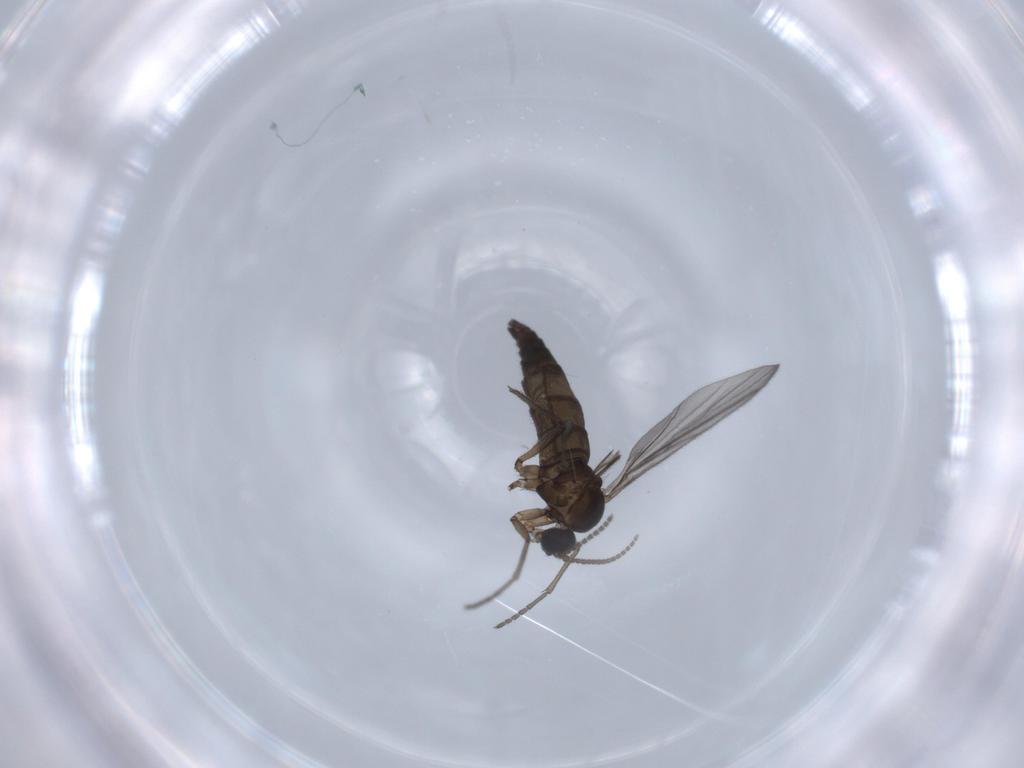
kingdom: Animalia
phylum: Arthropoda
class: Insecta
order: Diptera
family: Sciaridae
